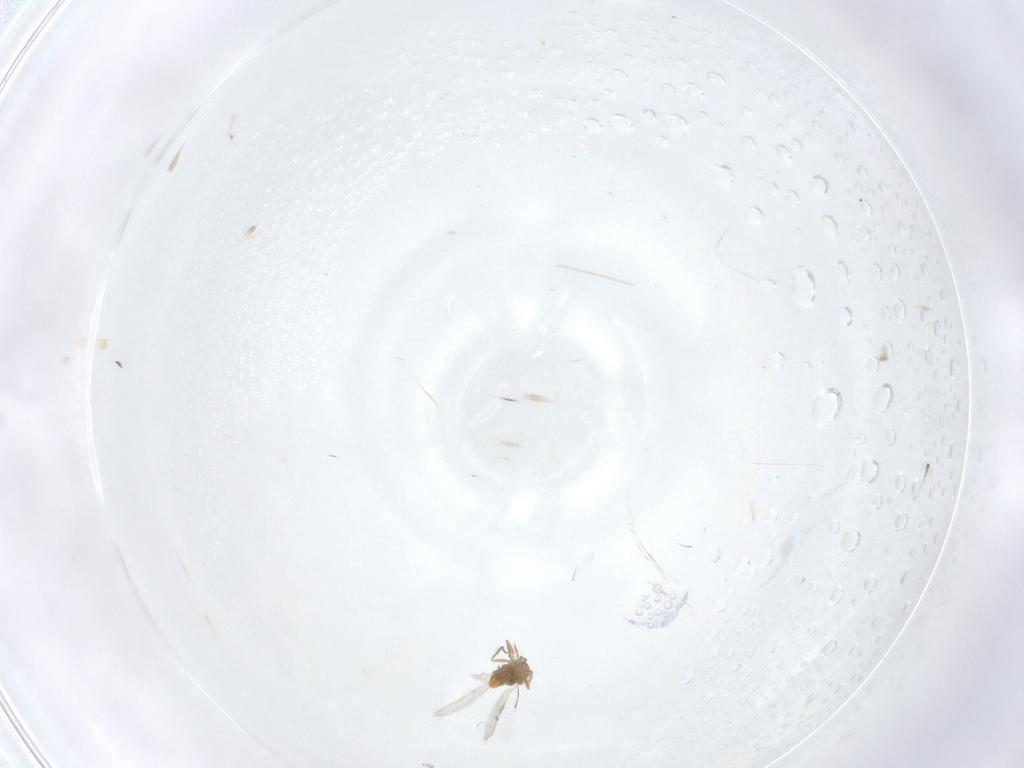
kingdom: Animalia
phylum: Arthropoda
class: Insecta
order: Hymenoptera
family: Aphelinidae
